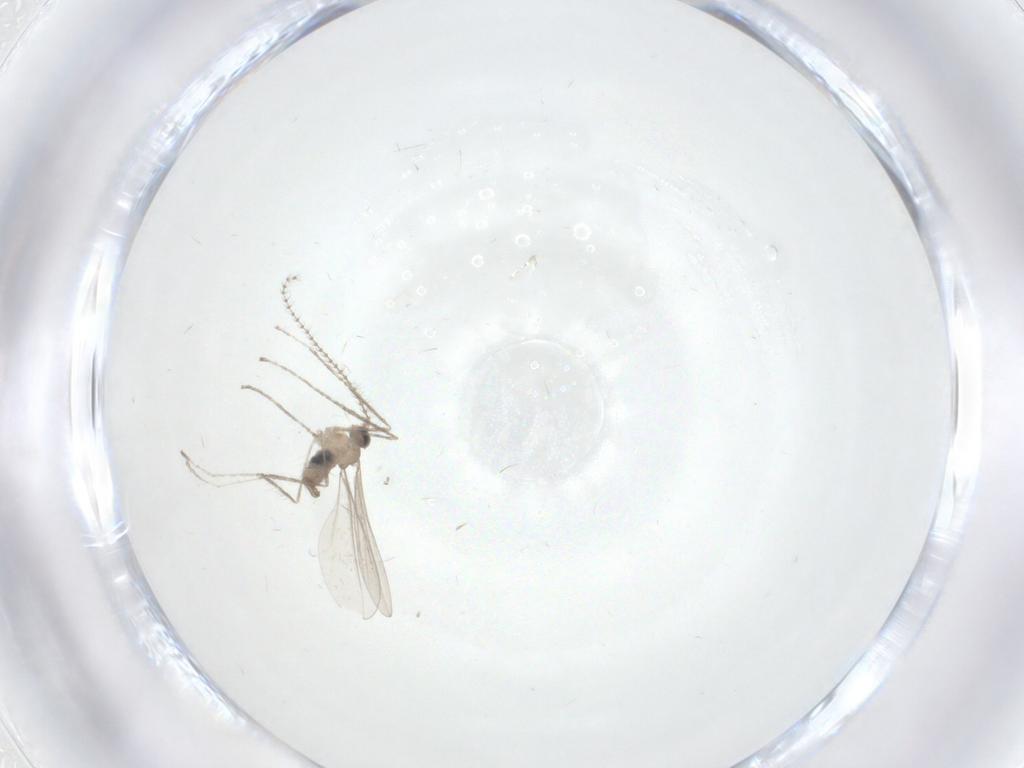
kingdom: Animalia
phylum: Arthropoda
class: Insecta
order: Diptera
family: Cecidomyiidae
